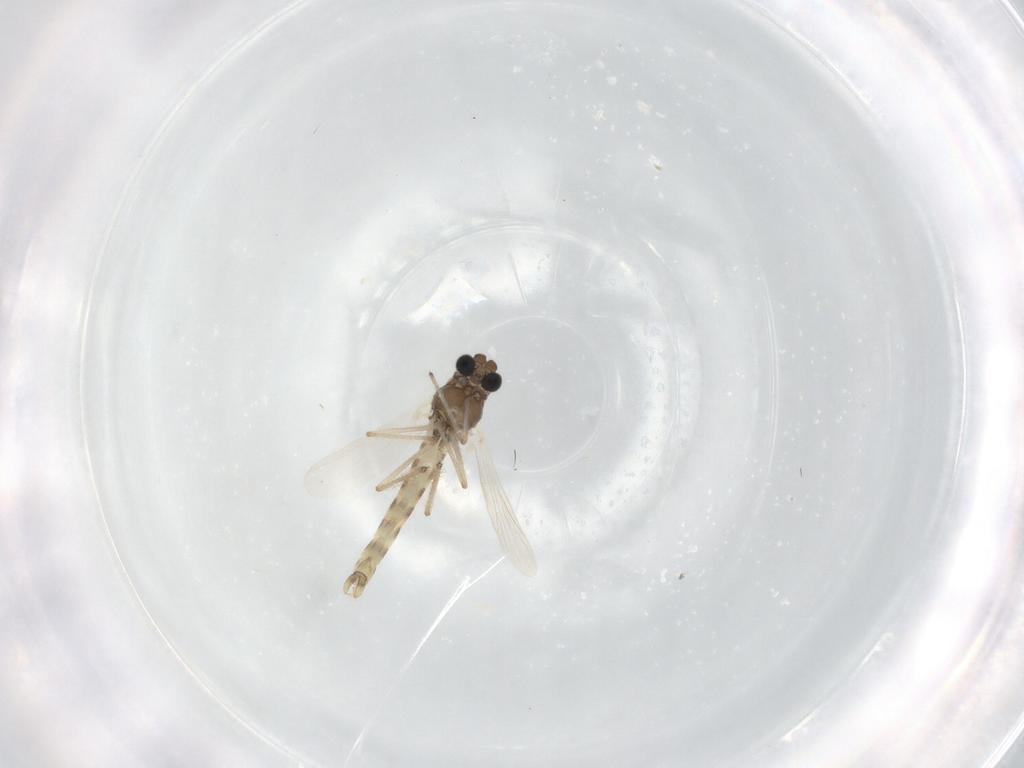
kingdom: Animalia
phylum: Arthropoda
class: Insecta
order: Diptera
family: Chironomidae
